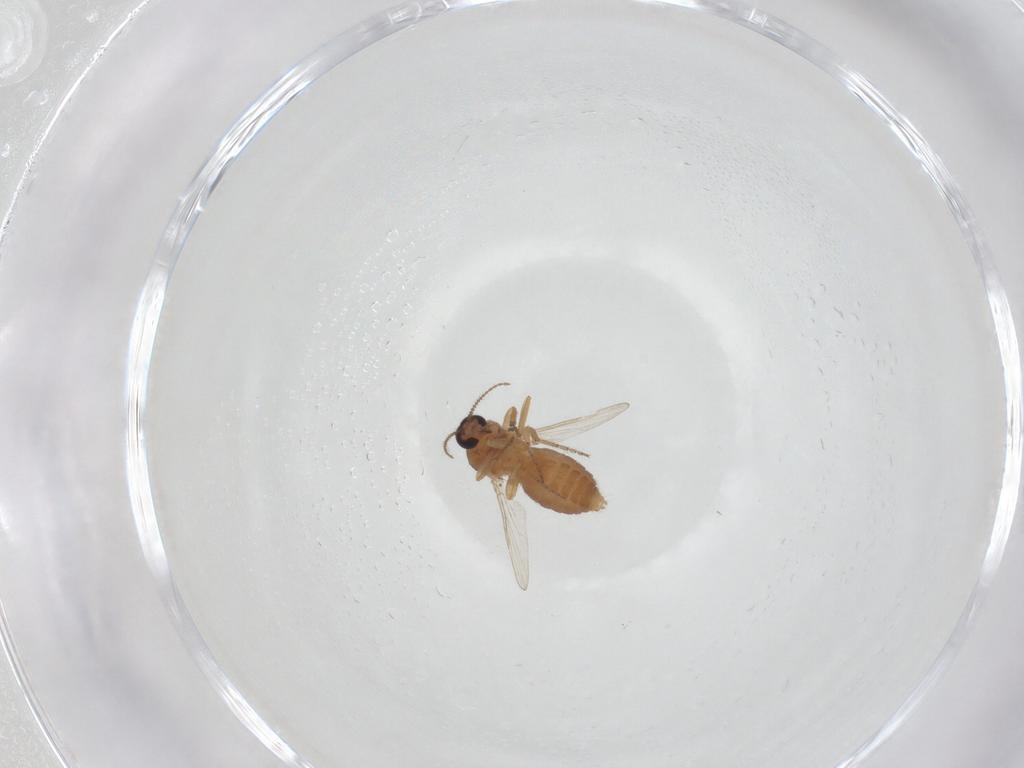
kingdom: Animalia
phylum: Arthropoda
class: Insecta
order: Diptera
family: Ceratopogonidae
